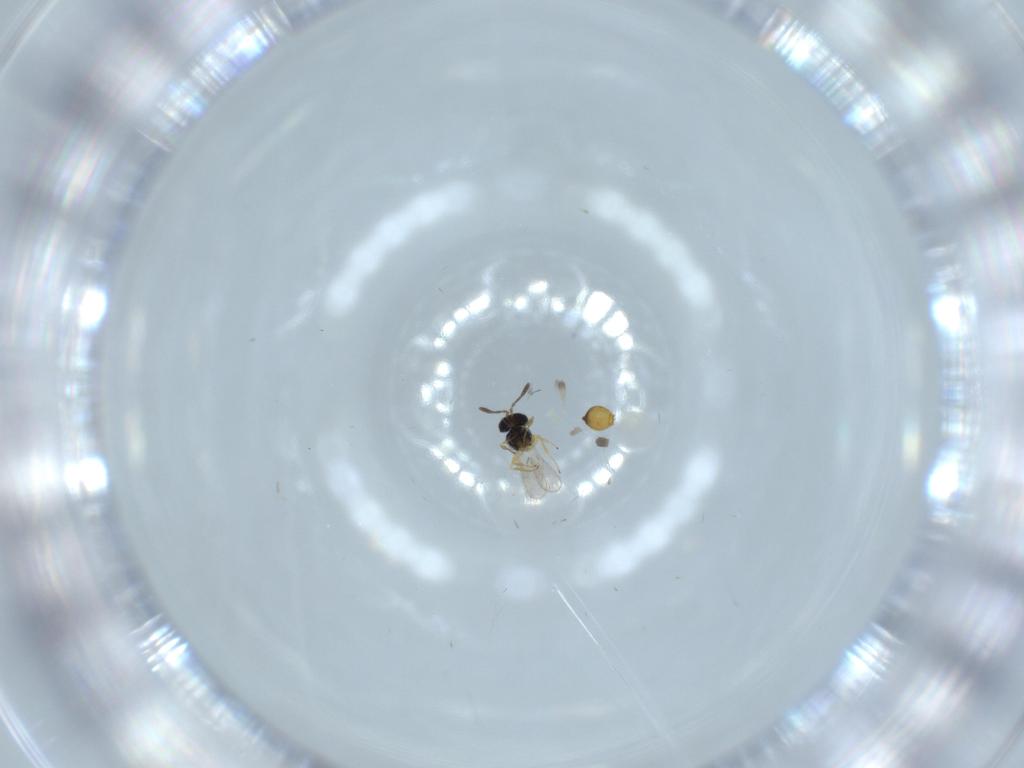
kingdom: Animalia
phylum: Arthropoda
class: Insecta
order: Hymenoptera
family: Scelionidae
